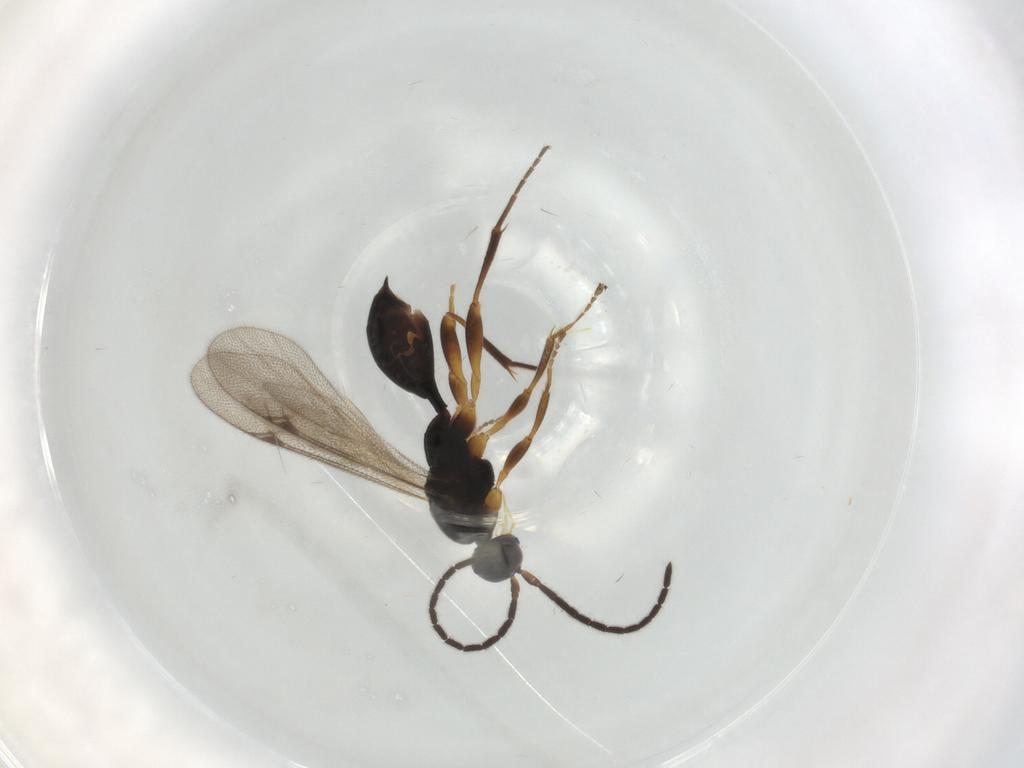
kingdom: Animalia
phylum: Arthropoda
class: Insecta
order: Hymenoptera
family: Proctotrupidae
